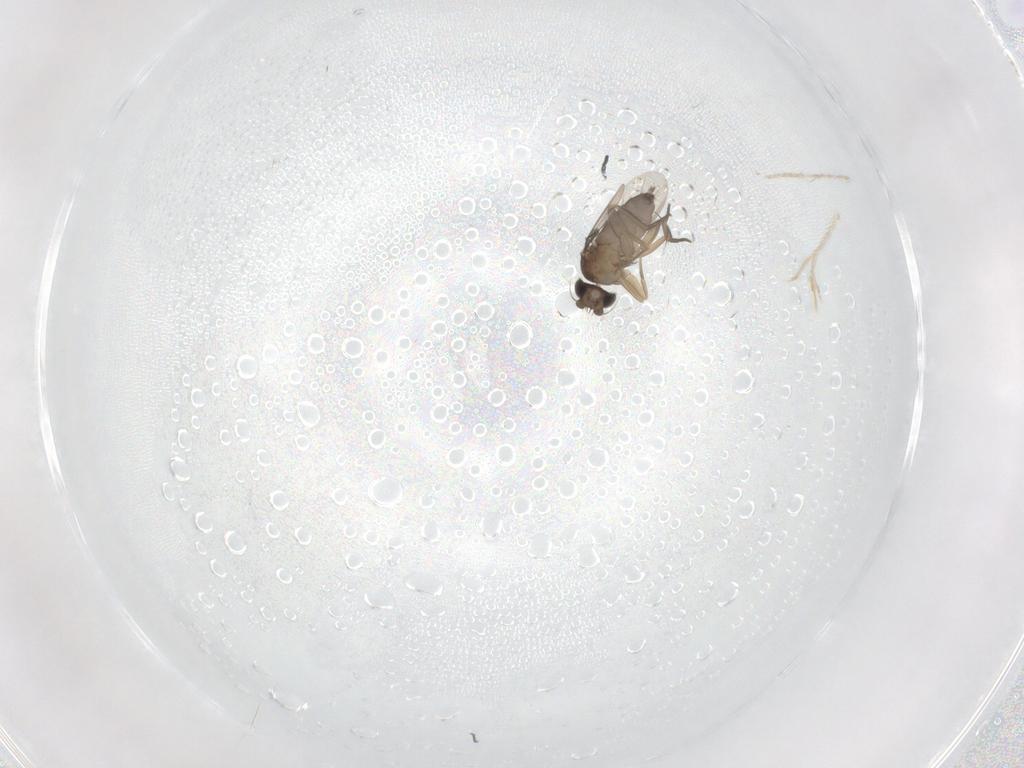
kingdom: Animalia
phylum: Arthropoda
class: Insecta
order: Diptera
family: Phoridae
